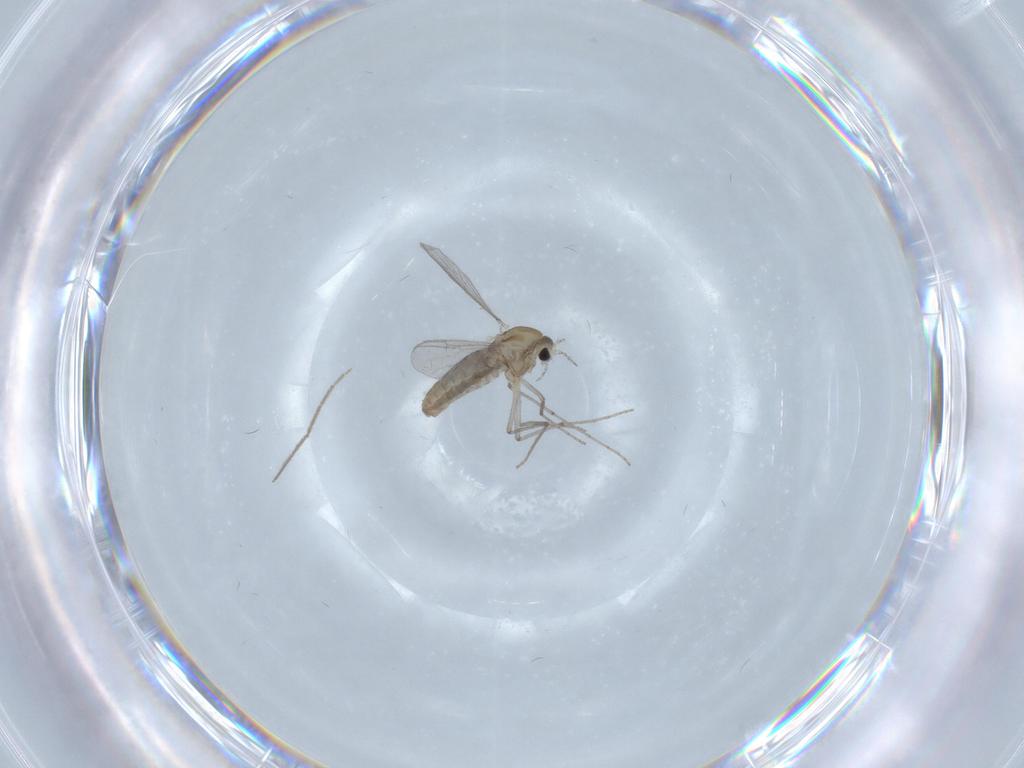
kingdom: Animalia
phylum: Arthropoda
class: Insecta
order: Diptera
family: Chironomidae
